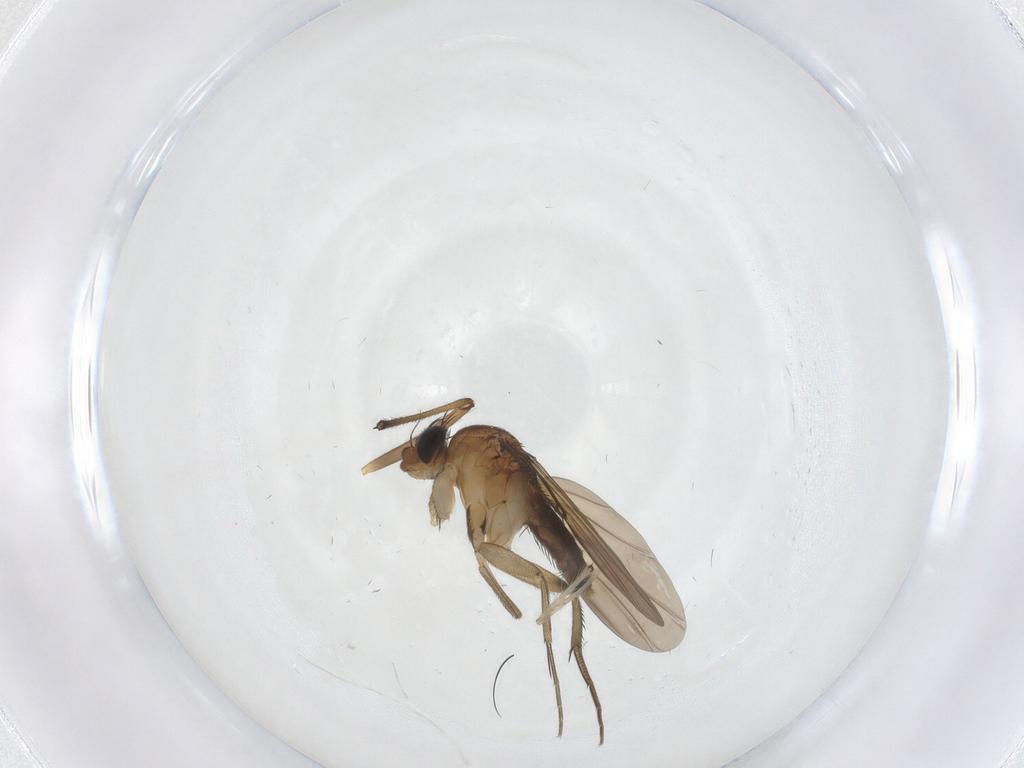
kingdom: Animalia
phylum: Arthropoda
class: Insecta
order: Diptera
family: Phoridae
